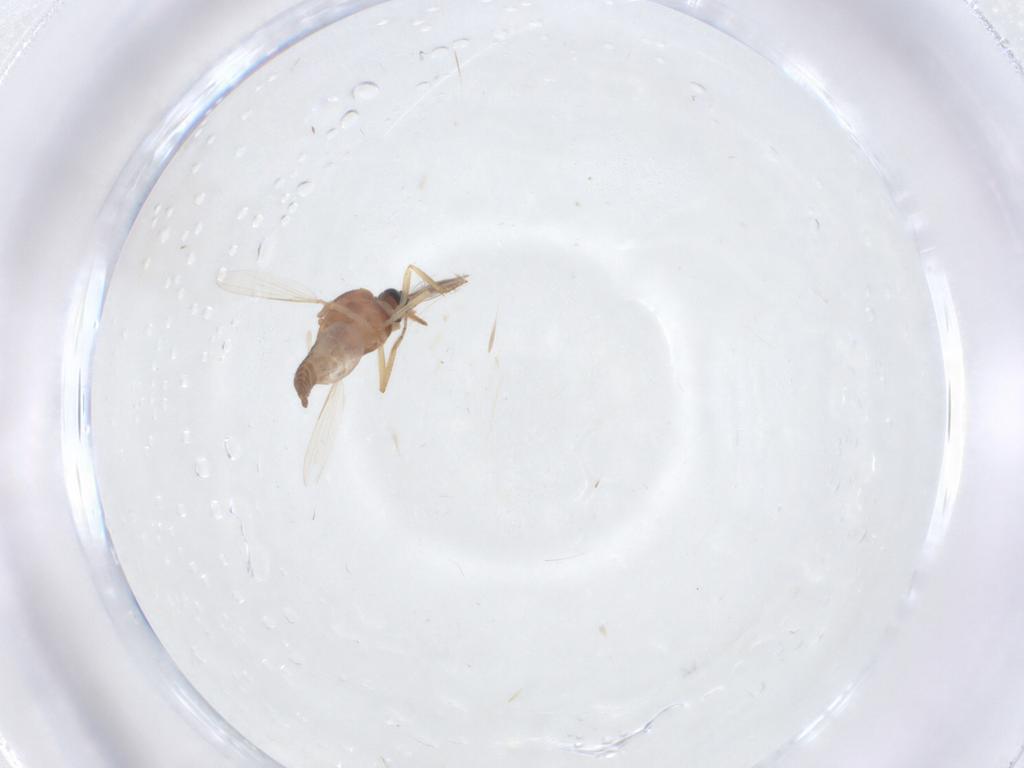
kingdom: Animalia
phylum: Arthropoda
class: Insecta
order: Diptera
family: Ceratopogonidae
